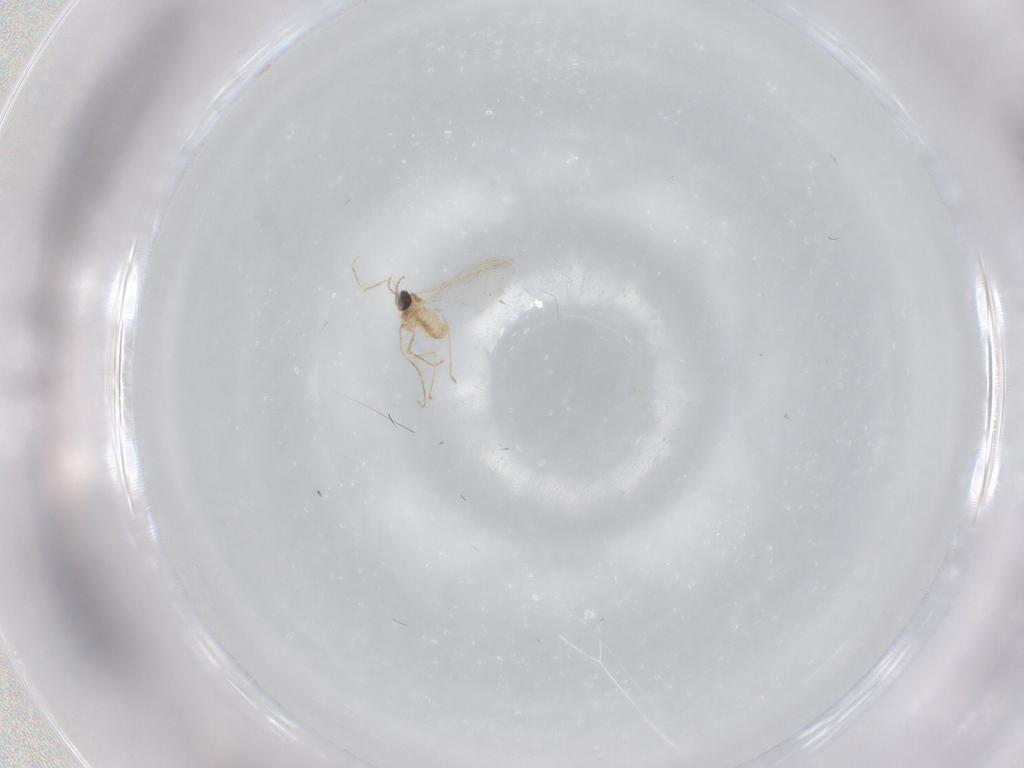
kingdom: Animalia
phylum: Arthropoda
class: Insecta
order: Diptera
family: Cecidomyiidae
